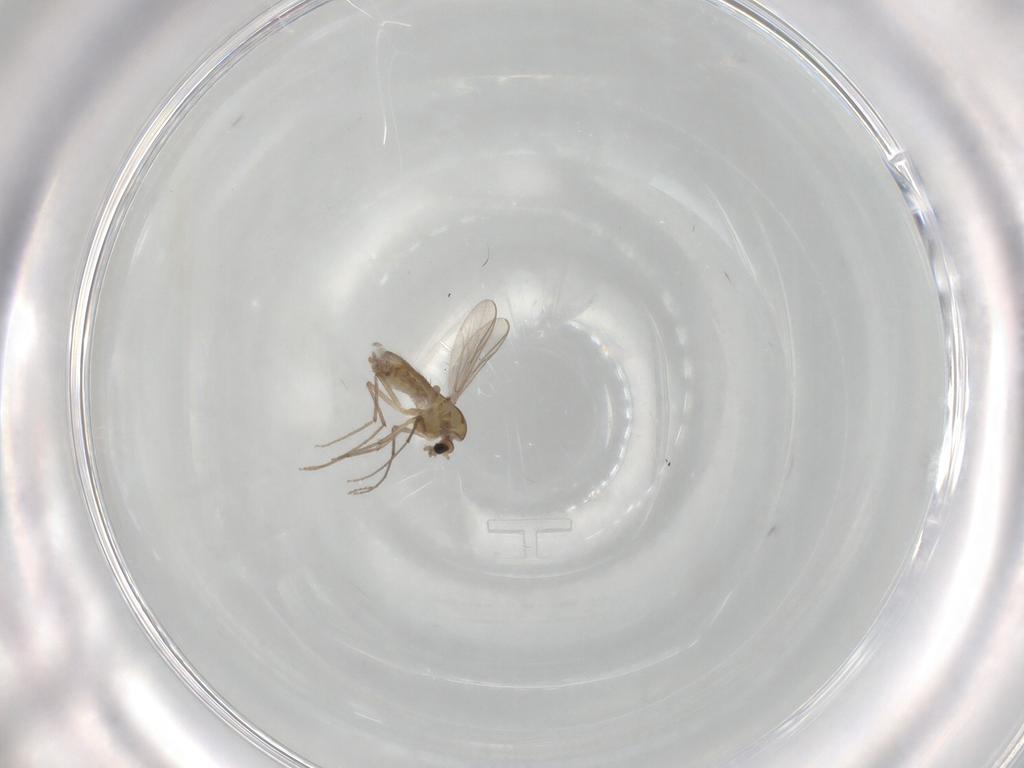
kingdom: Animalia
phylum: Arthropoda
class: Insecta
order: Diptera
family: Chironomidae
